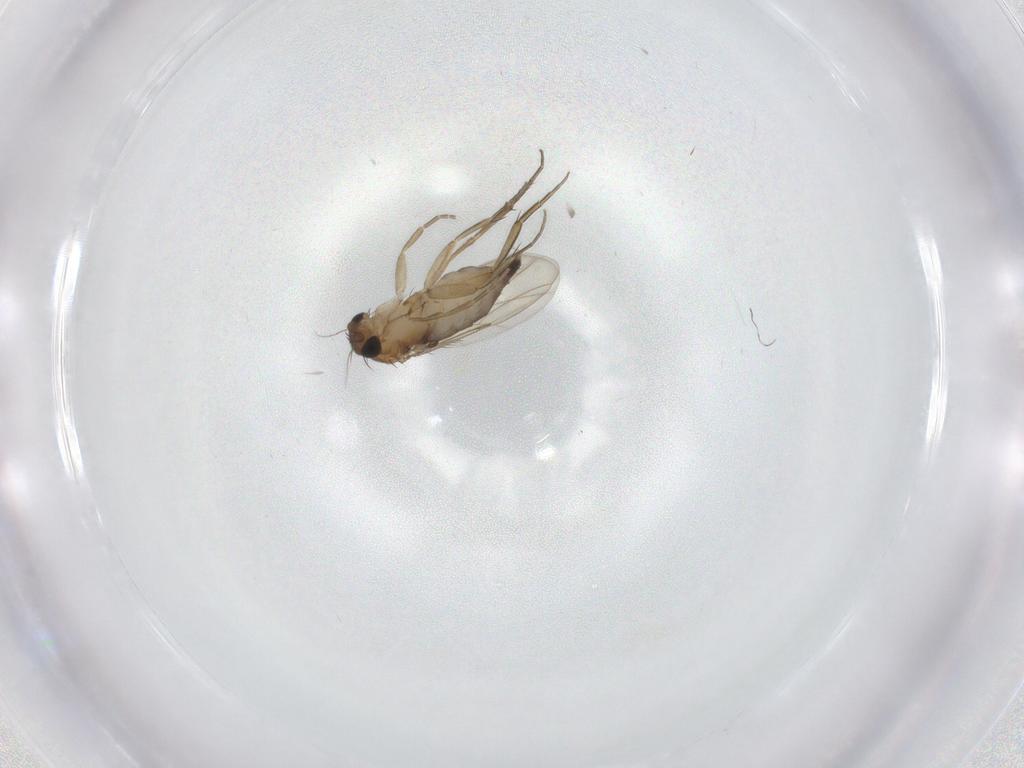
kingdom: Animalia
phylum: Arthropoda
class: Insecta
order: Diptera
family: Phoridae
